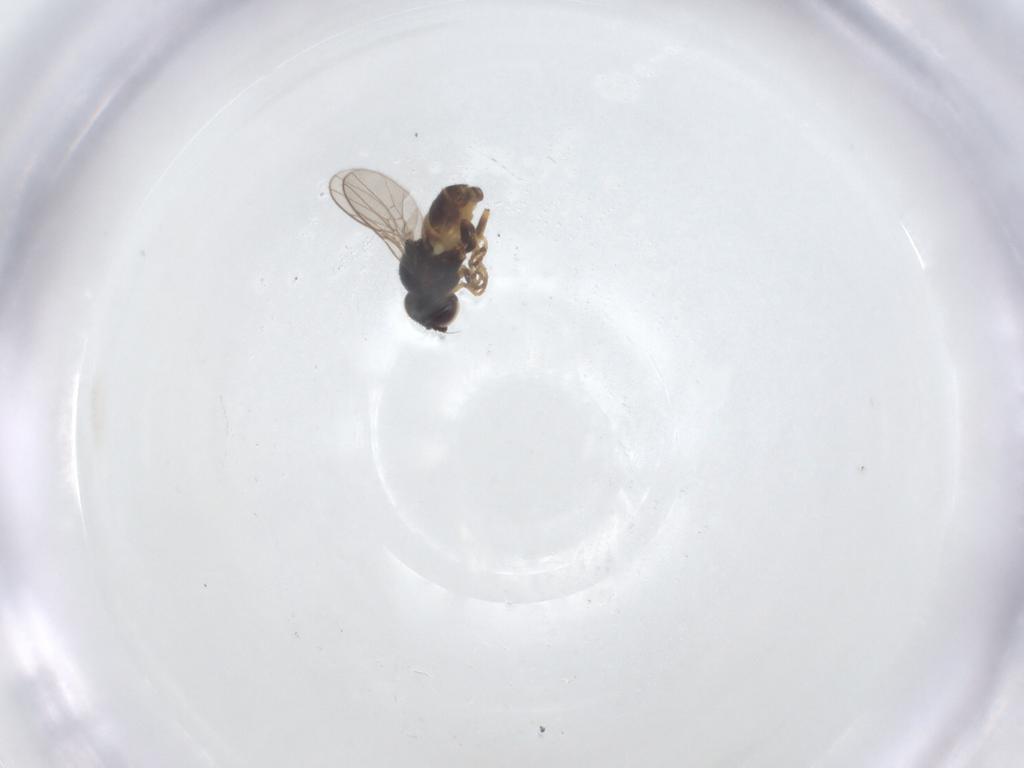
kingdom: Animalia
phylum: Arthropoda
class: Insecta
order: Diptera
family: Chloropidae
